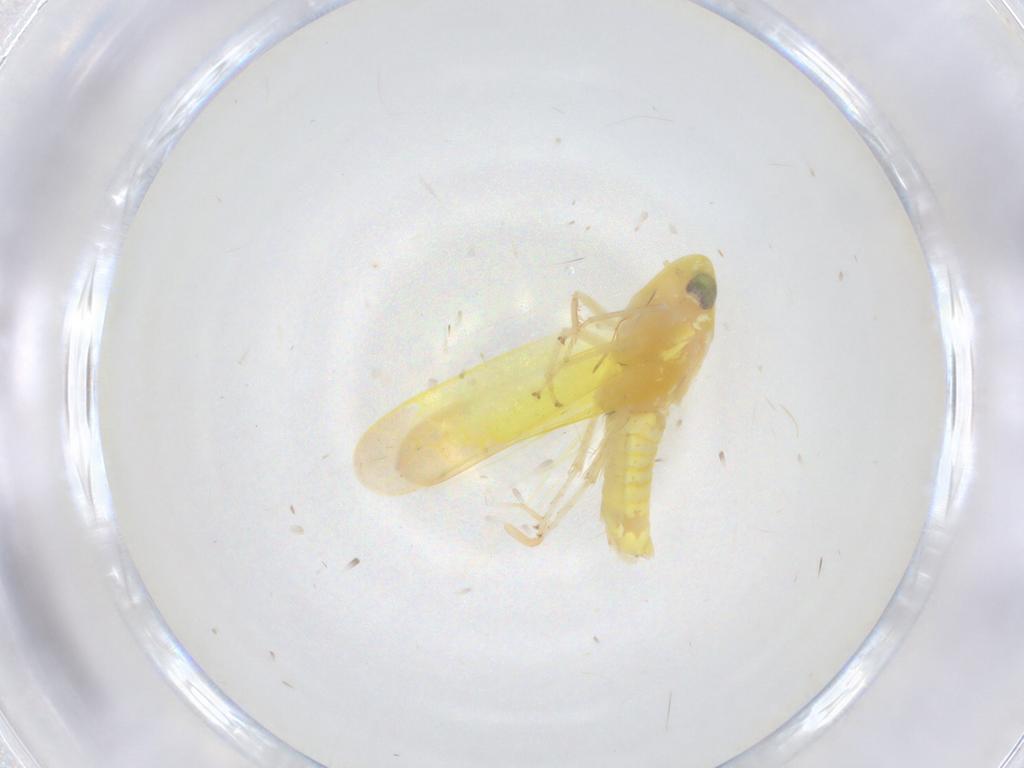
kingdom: Animalia
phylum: Arthropoda
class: Insecta
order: Hemiptera
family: Cicadellidae
